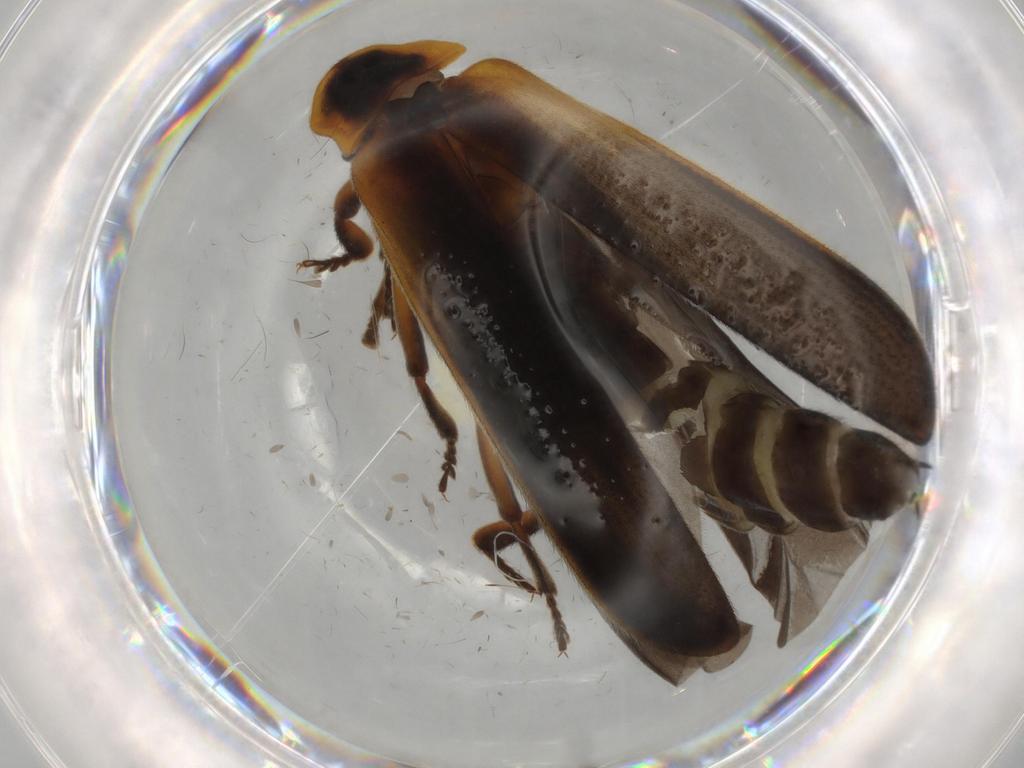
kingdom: Animalia
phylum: Arthropoda
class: Insecta
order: Coleoptera
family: Lycidae
